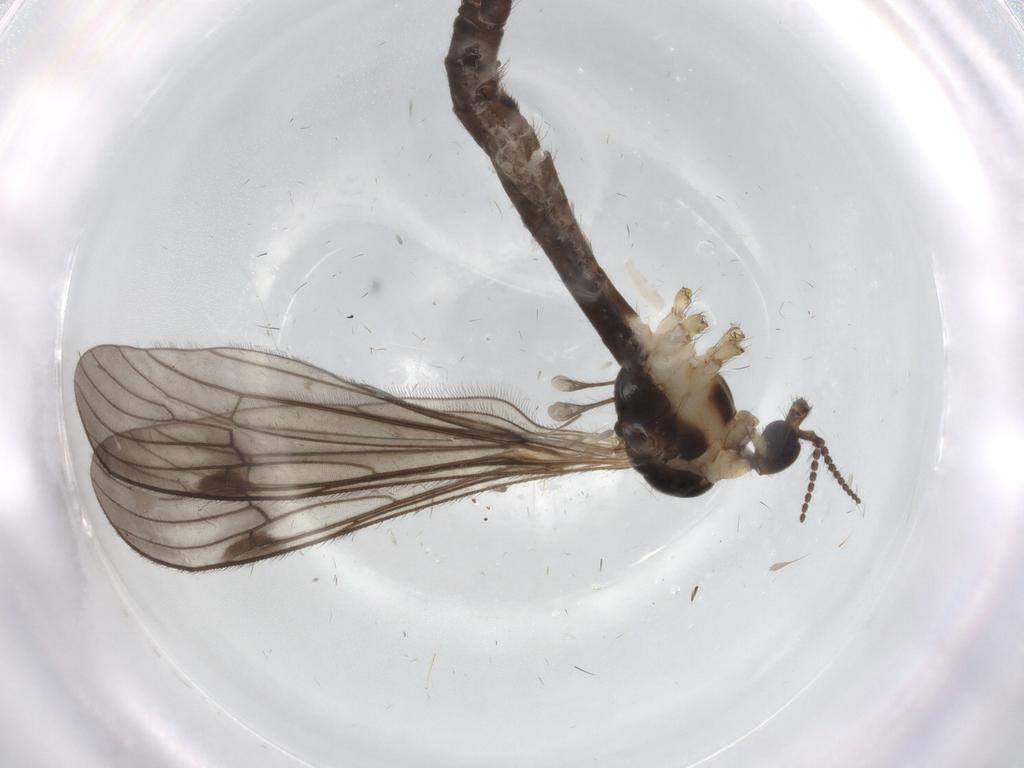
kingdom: Animalia
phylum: Arthropoda
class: Insecta
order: Diptera
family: Limoniidae
